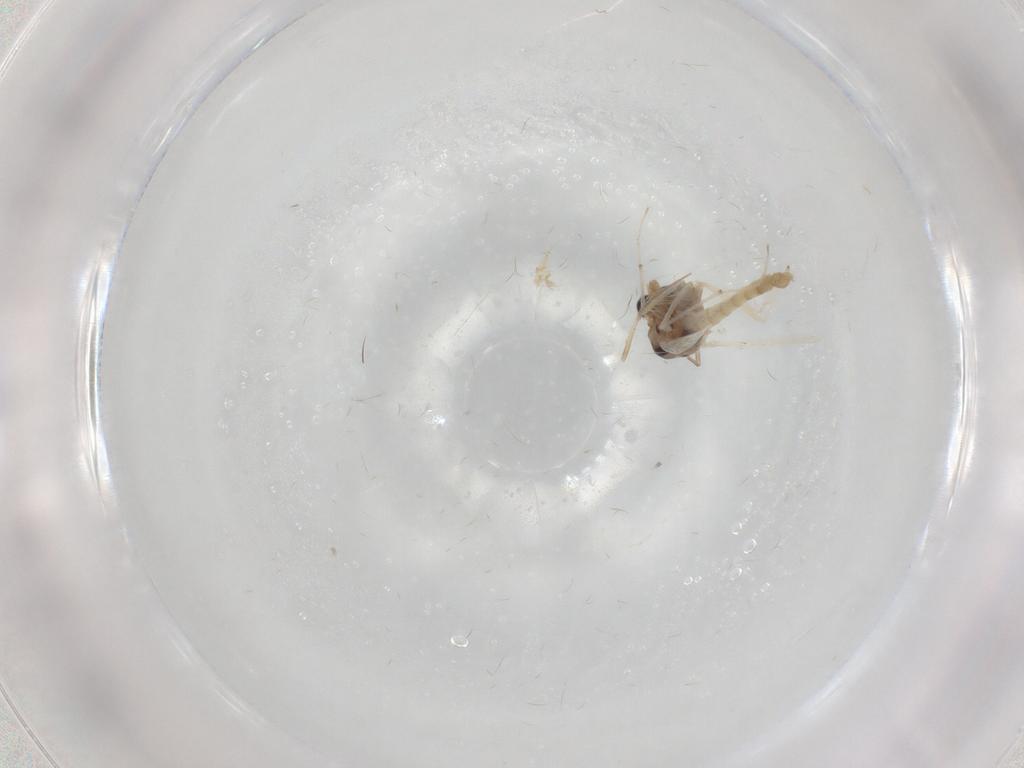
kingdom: Animalia
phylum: Arthropoda
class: Insecta
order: Diptera
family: Chironomidae
